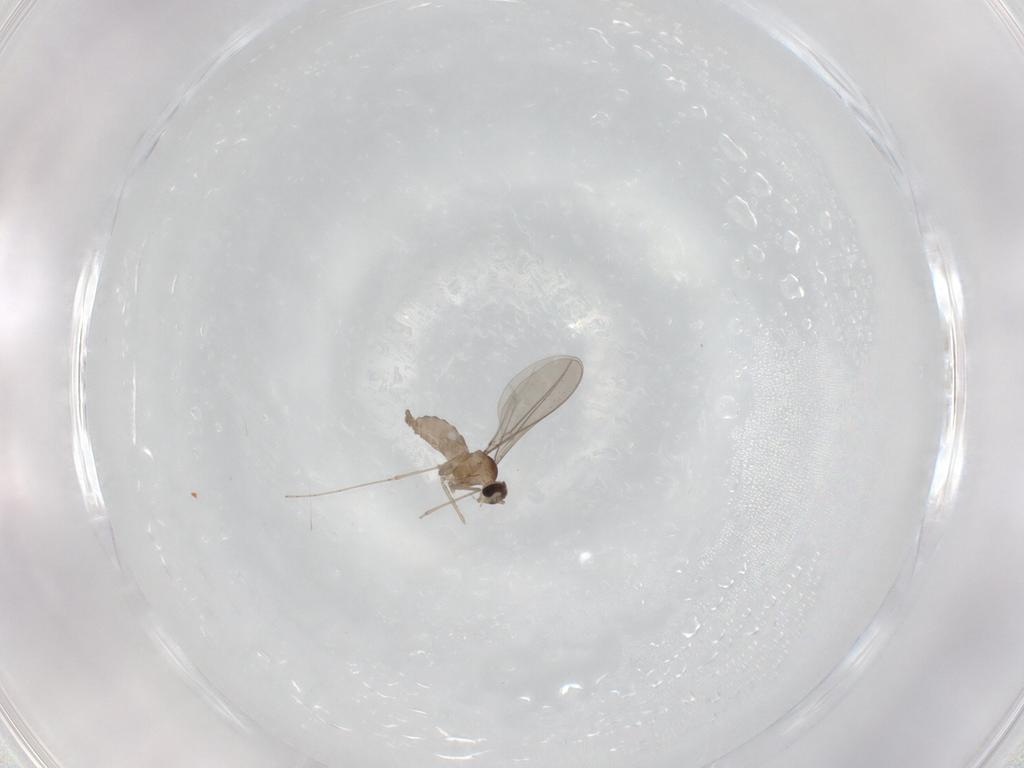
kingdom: Animalia
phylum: Arthropoda
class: Insecta
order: Diptera
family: Cecidomyiidae
